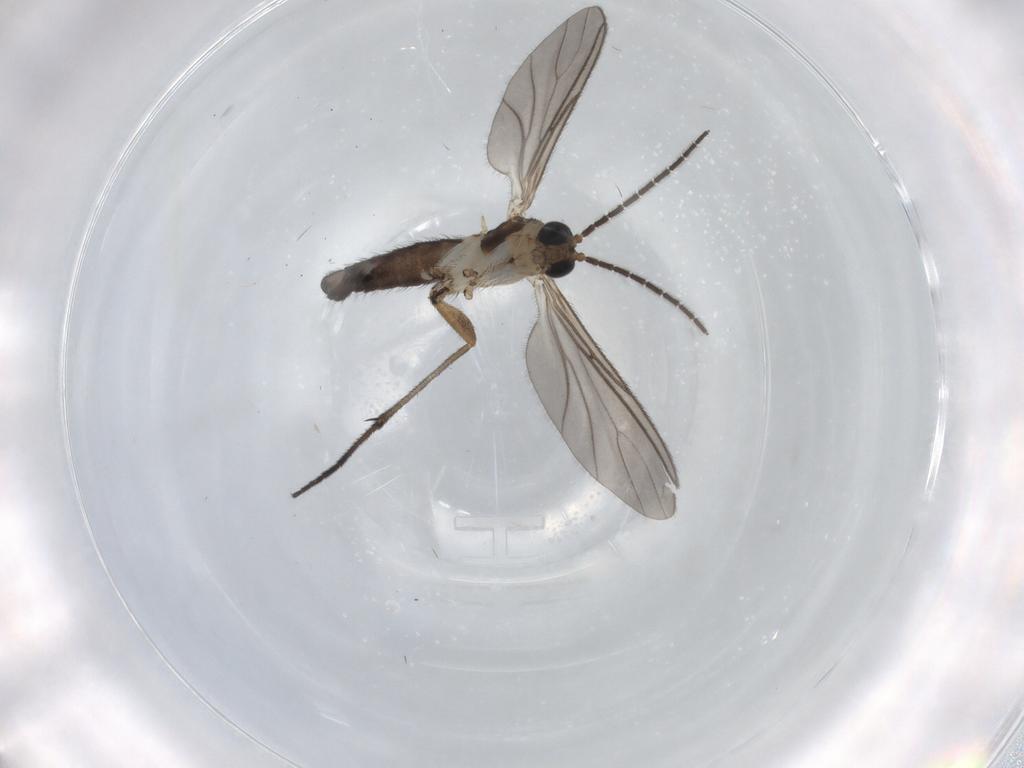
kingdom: Animalia
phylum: Arthropoda
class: Insecta
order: Diptera
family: Sciaridae
